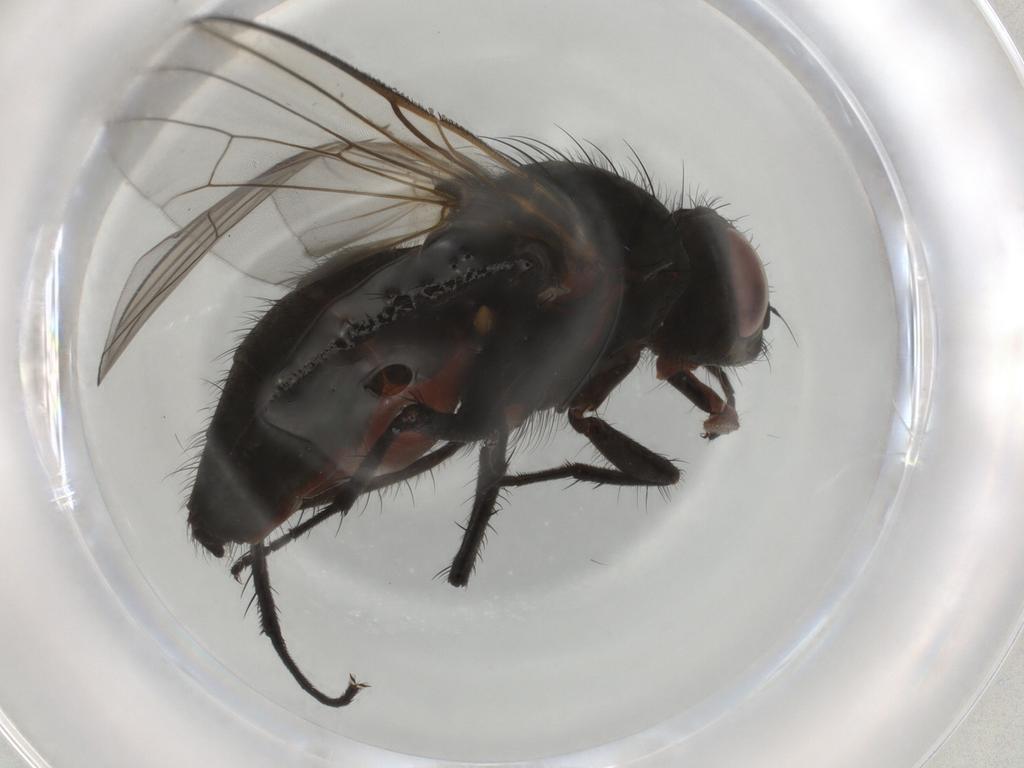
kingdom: Animalia
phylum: Arthropoda
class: Insecta
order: Diptera
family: Anthomyiidae
